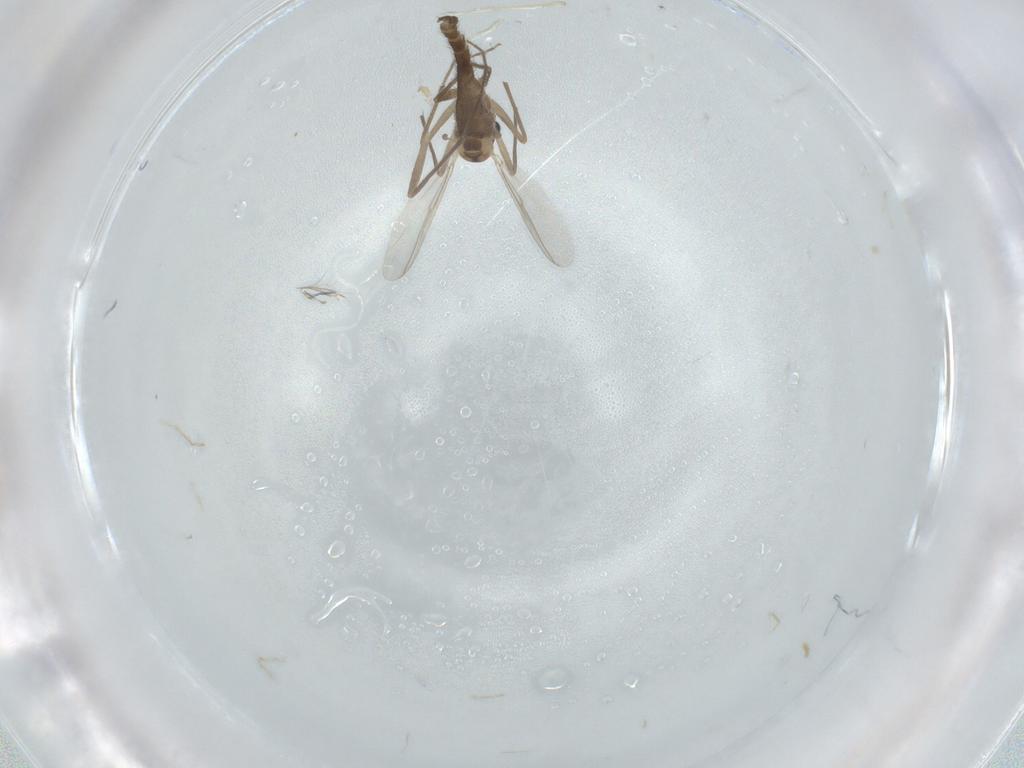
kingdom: Animalia
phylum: Arthropoda
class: Insecta
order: Diptera
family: Chironomidae
